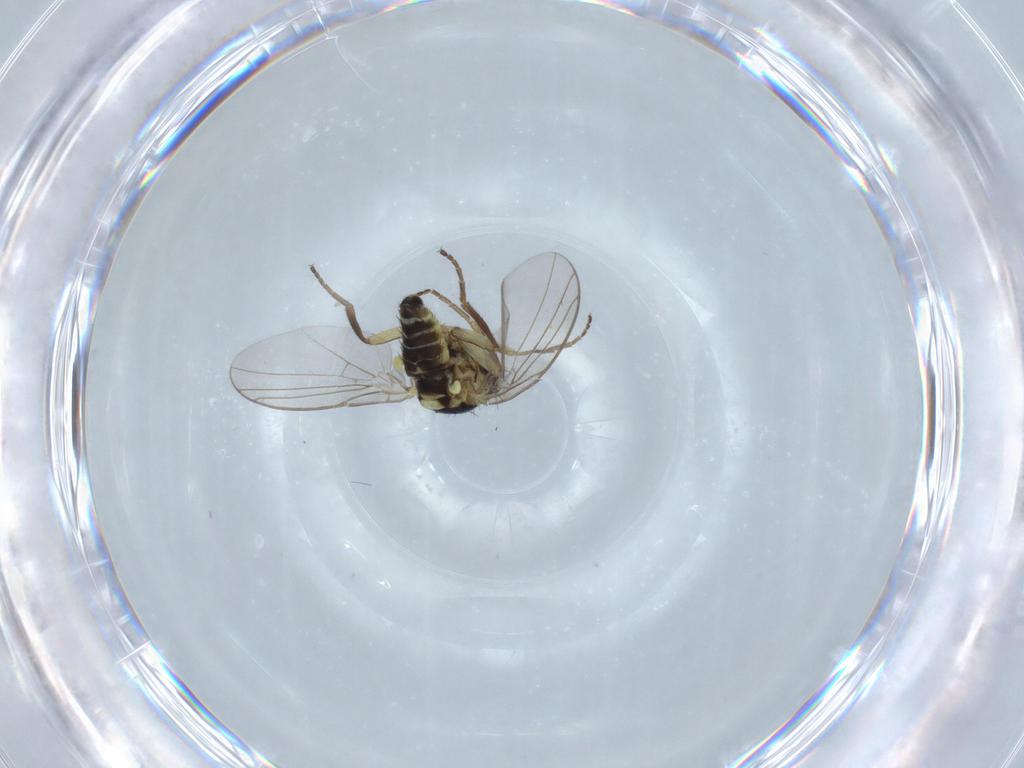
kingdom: Animalia
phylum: Arthropoda
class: Insecta
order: Diptera
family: Agromyzidae
